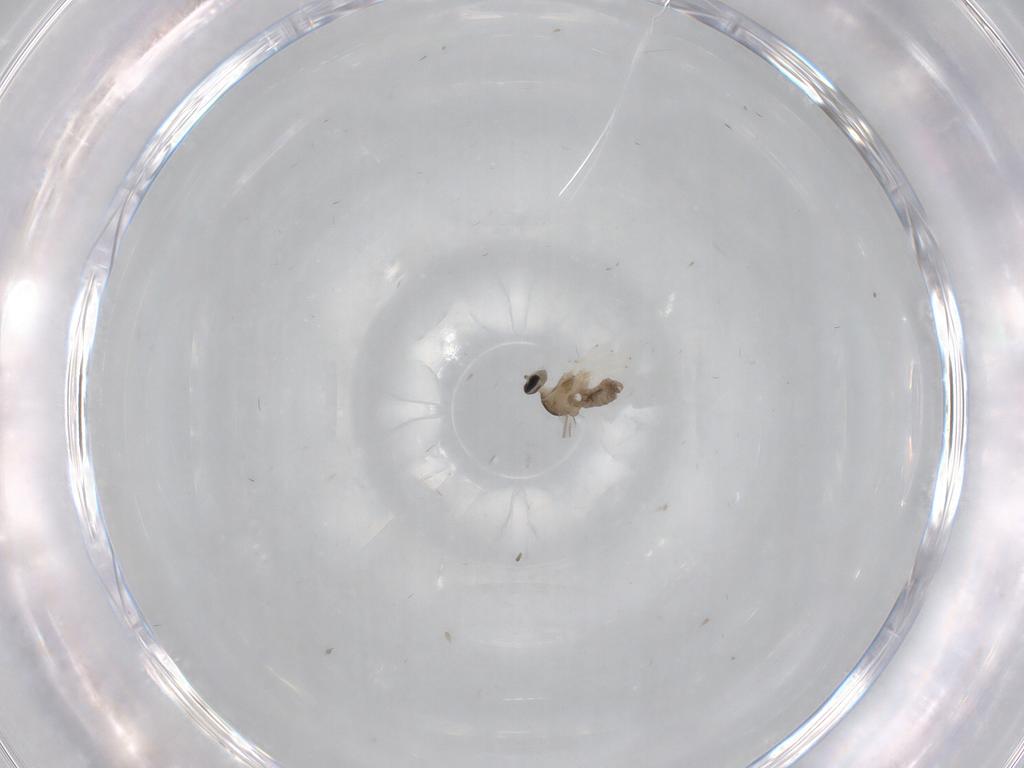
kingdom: Animalia
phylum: Arthropoda
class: Insecta
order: Diptera
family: Cecidomyiidae
